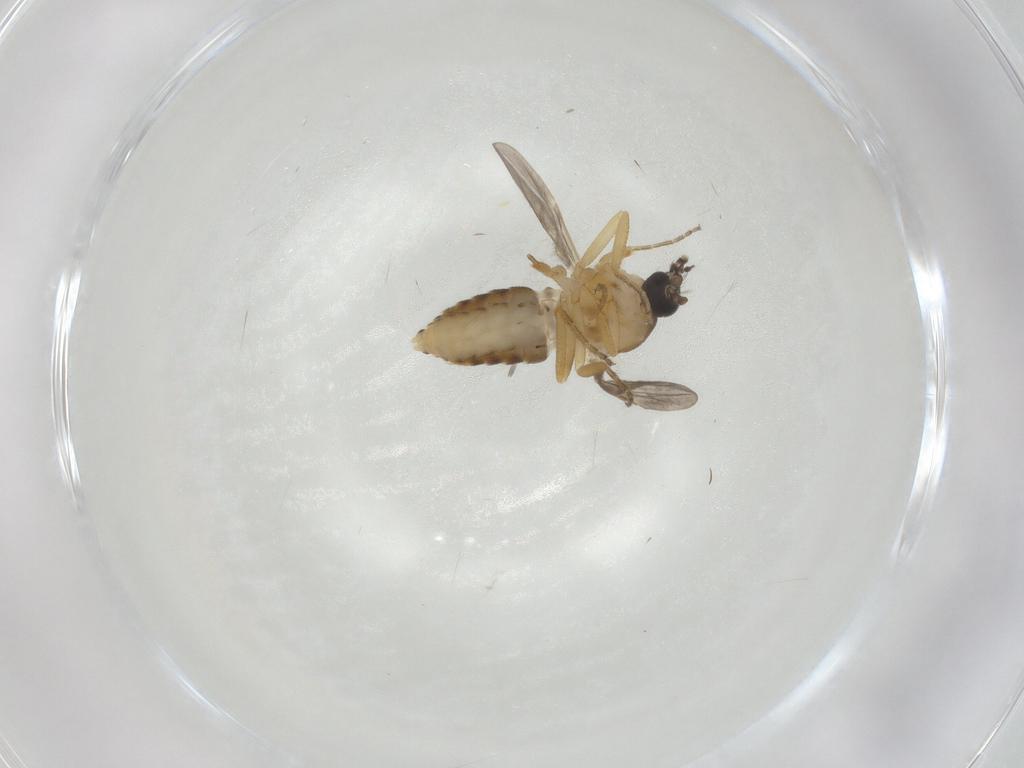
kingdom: Animalia
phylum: Arthropoda
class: Insecta
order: Diptera
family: Ceratopogonidae
